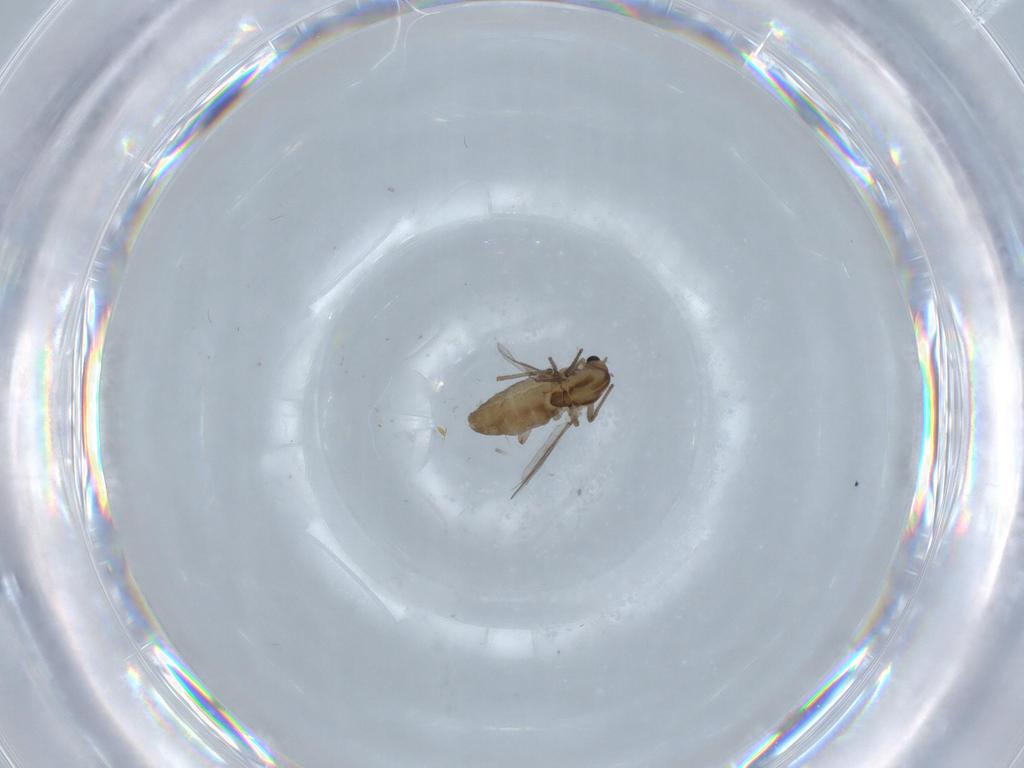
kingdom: Animalia
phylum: Arthropoda
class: Insecta
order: Diptera
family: Chironomidae
